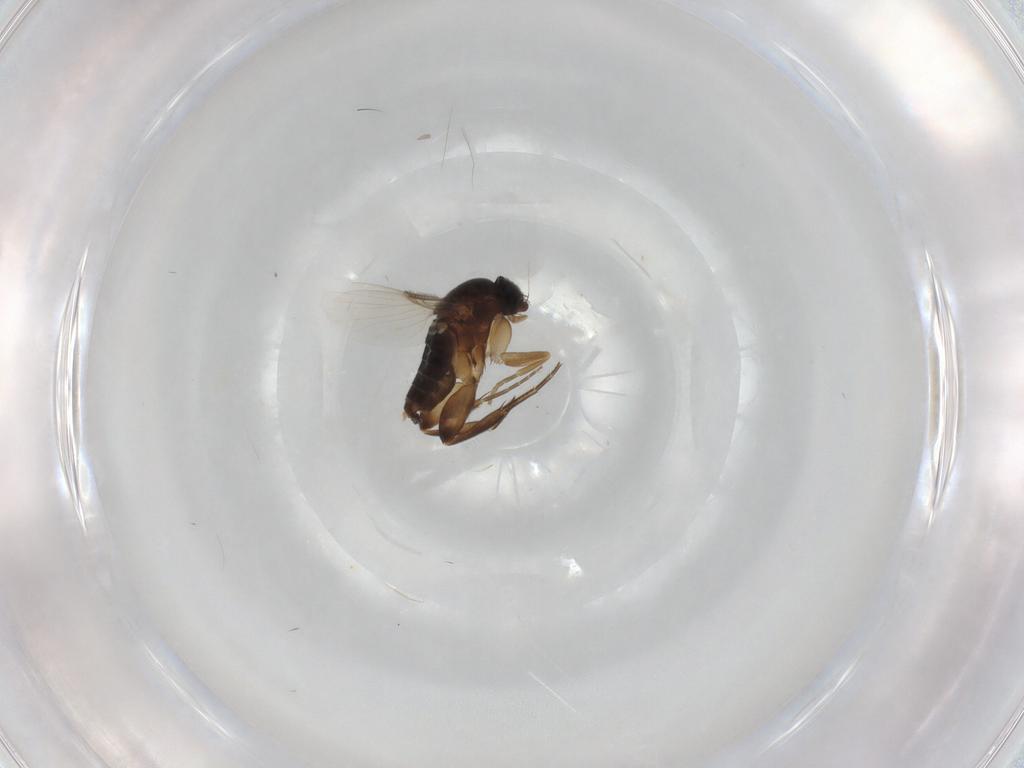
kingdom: Animalia
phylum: Arthropoda
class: Insecta
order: Diptera
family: Phoridae
